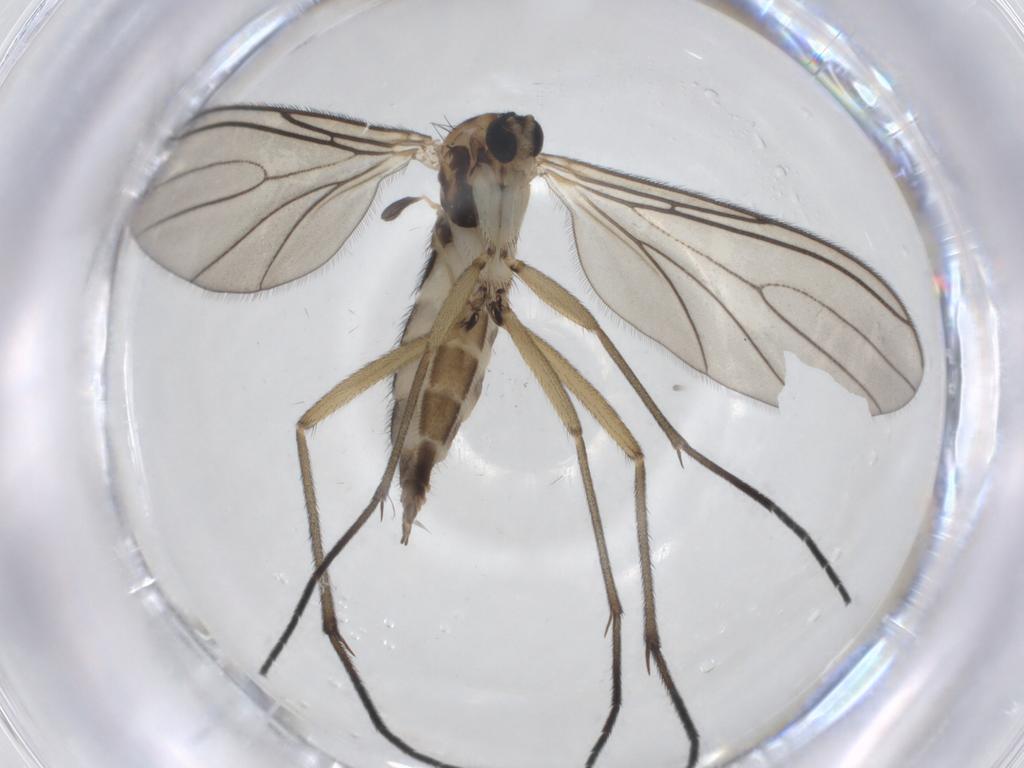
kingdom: Animalia
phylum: Arthropoda
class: Insecta
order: Diptera
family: Sciaridae
